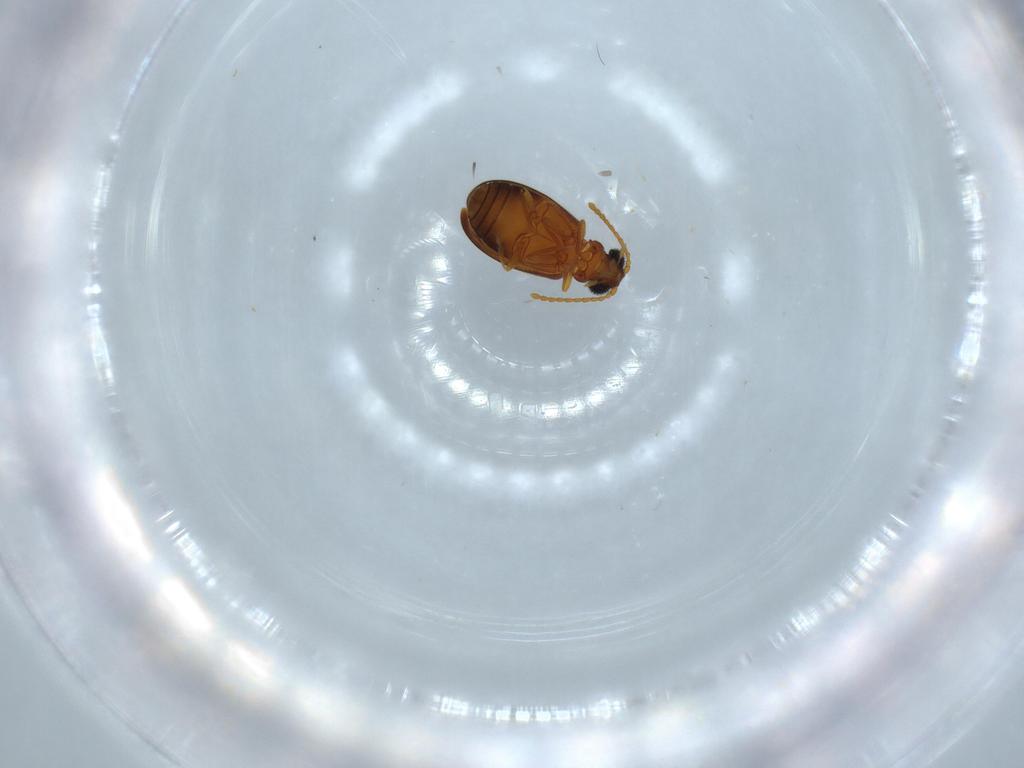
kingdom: Animalia
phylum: Arthropoda
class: Insecta
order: Coleoptera
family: Aderidae
